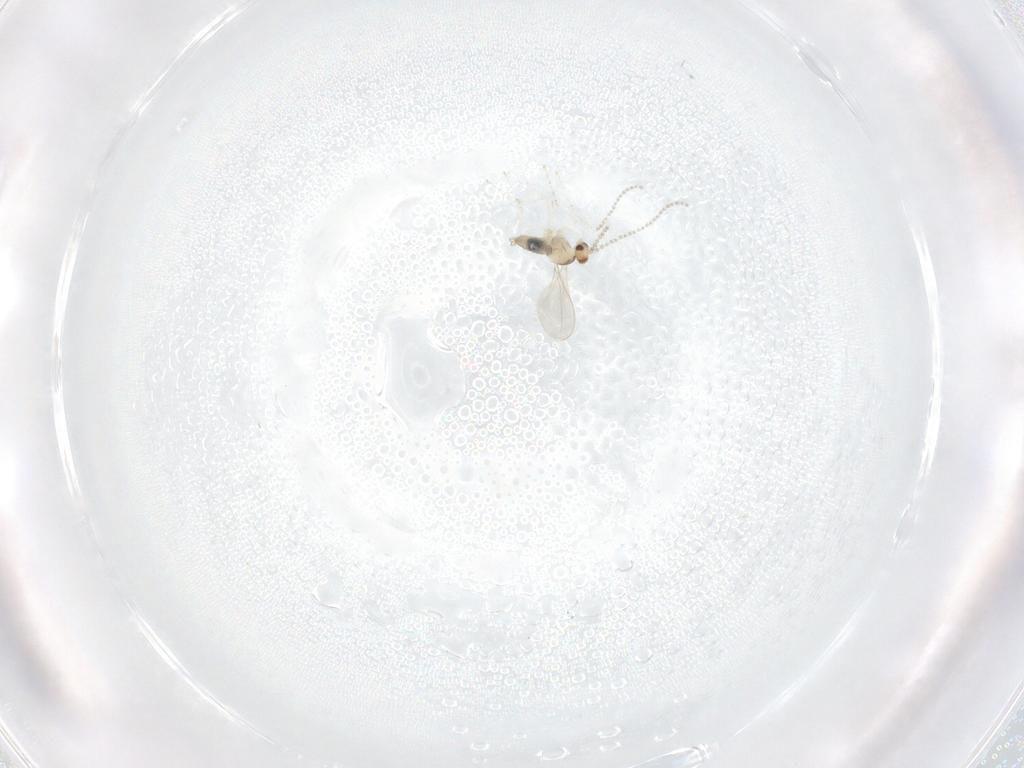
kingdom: Animalia
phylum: Arthropoda
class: Insecta
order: Diptera
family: Cecidomyiidae
